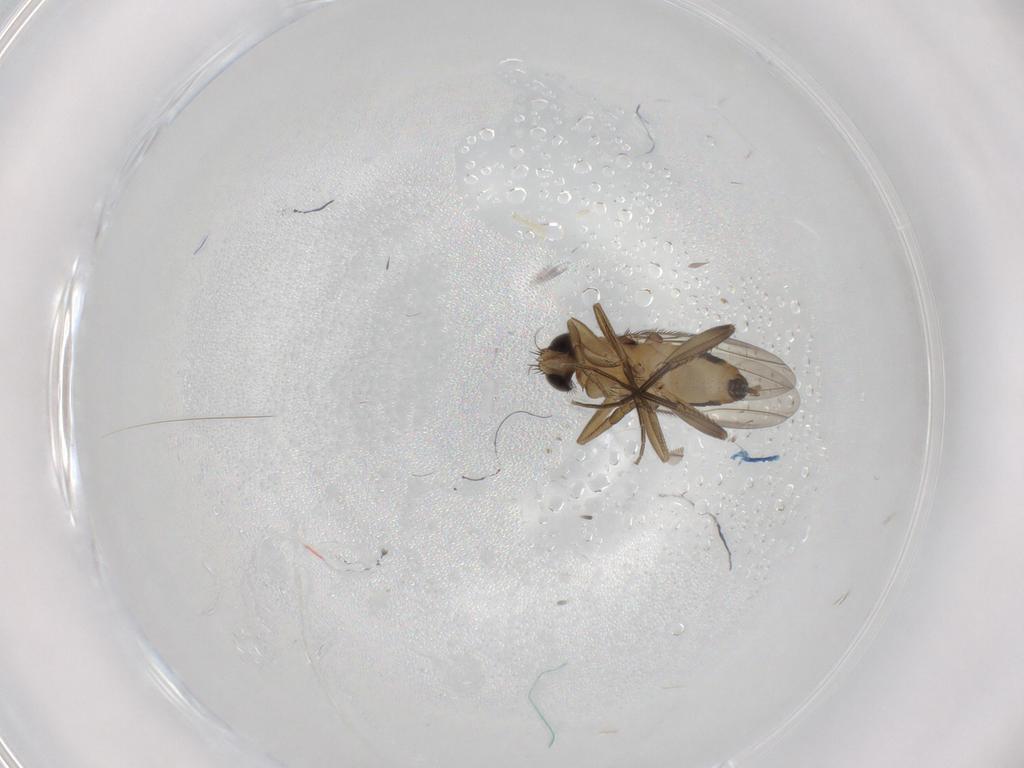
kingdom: Animalia
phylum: Arthropoda
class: Insecta
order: Diptera
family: Phoridae
